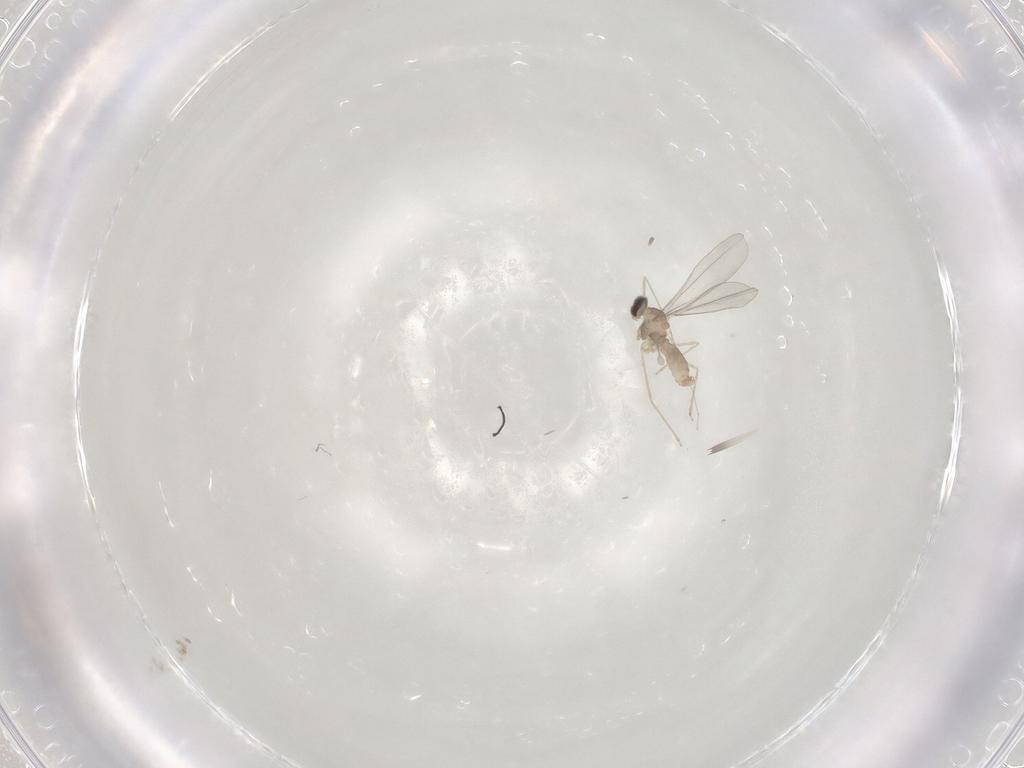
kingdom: Animalia
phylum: Arthropoda
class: Insecta
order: Diptera
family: Cecidomyiidae
